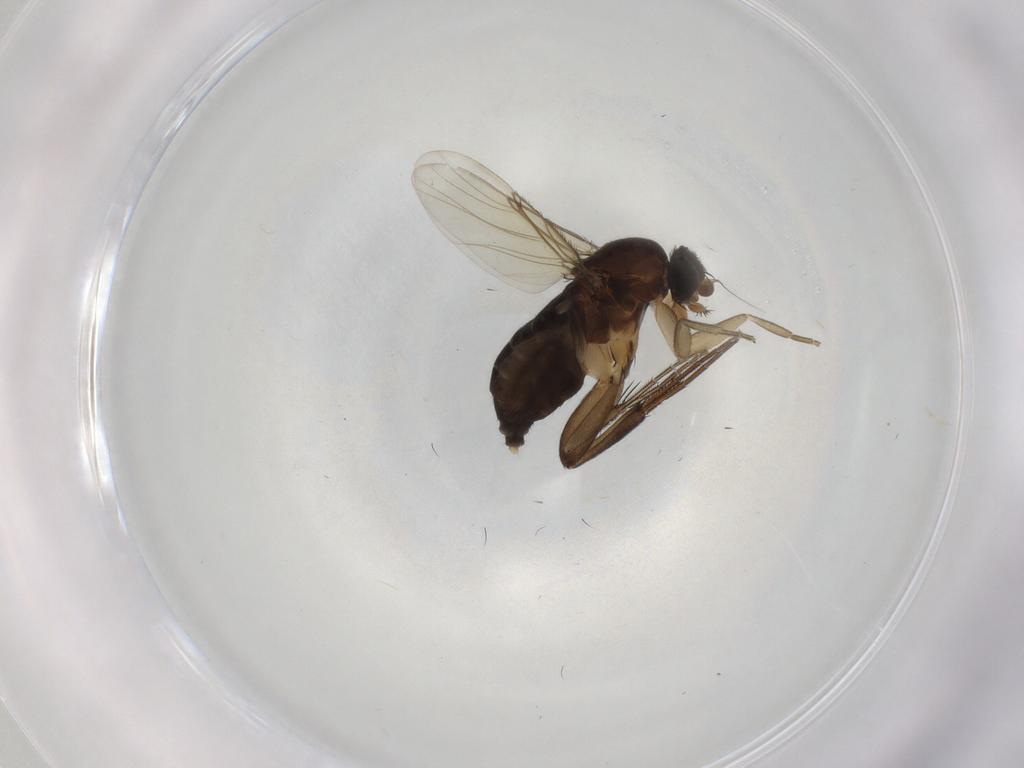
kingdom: Animalia
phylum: Arthropoda
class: Insecta
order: Diptera
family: Phoridae
